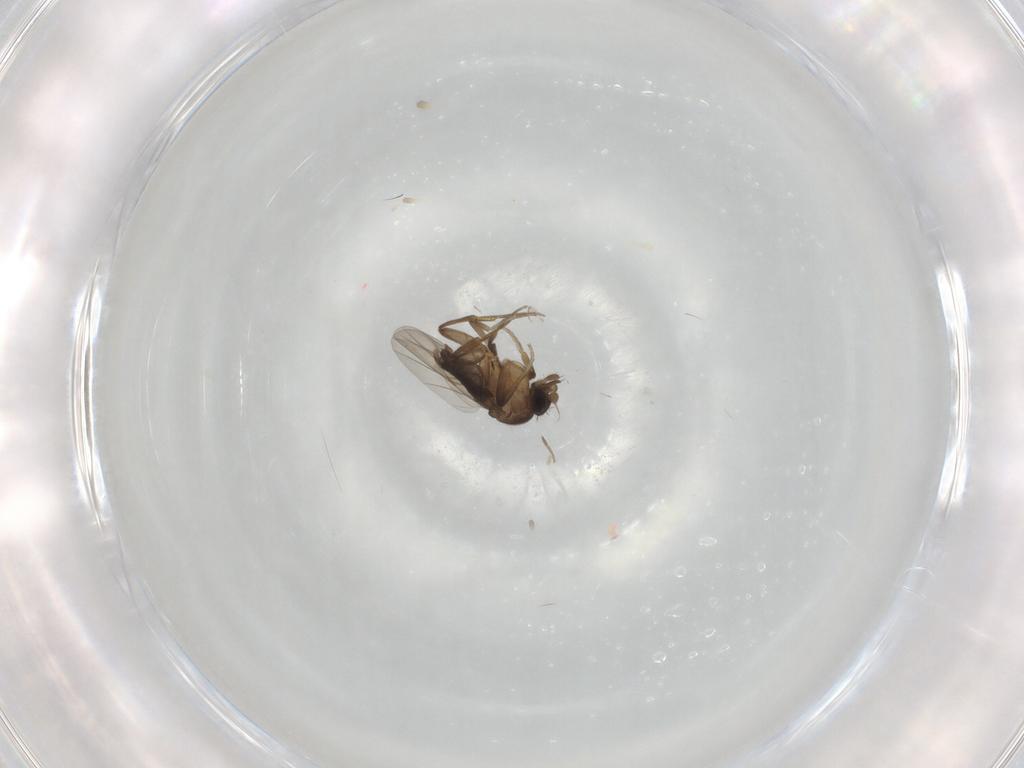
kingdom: Animalia
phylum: Arthropoda
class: Insecta
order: Diptera
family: Phoridae
